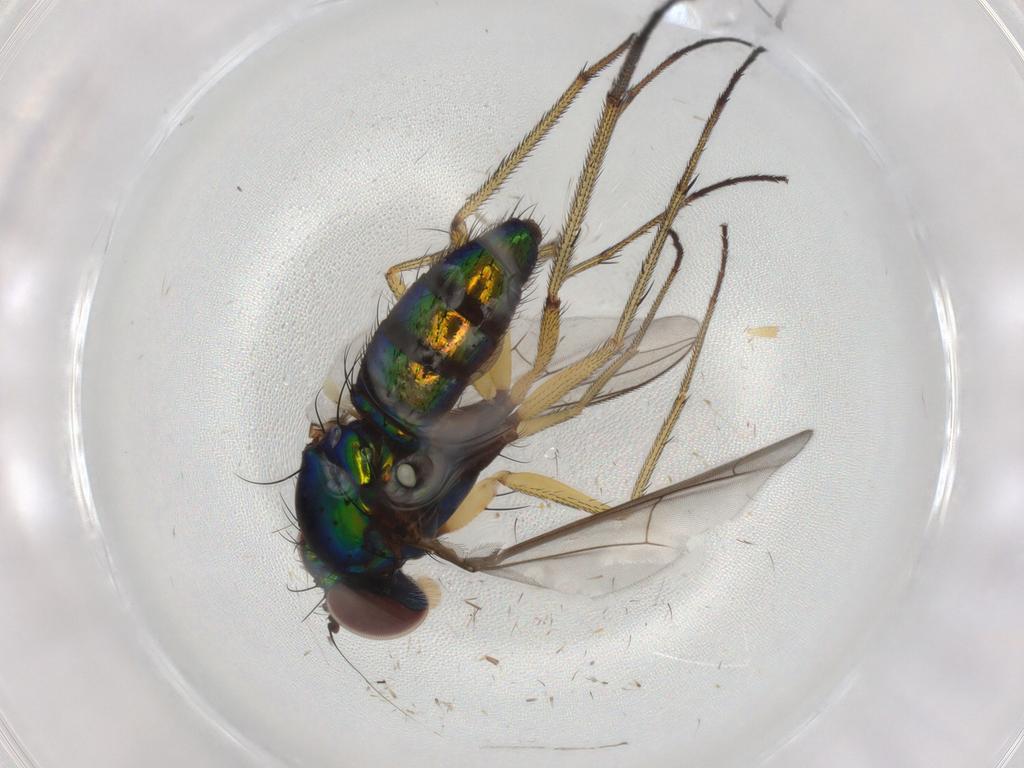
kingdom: Animalia
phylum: Arthropoda
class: Insecta
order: Diptera
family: Dolichopodidae
